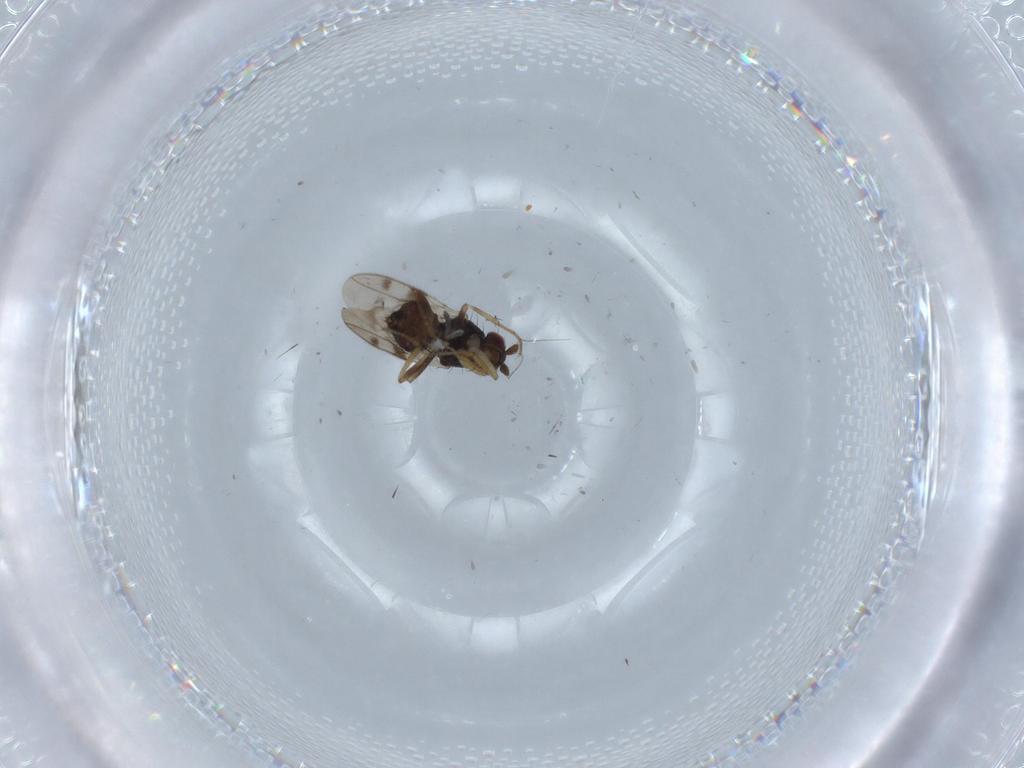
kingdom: Animalia
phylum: Arthropoda
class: Insecta
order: Diptera
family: Sphaeroceridae
